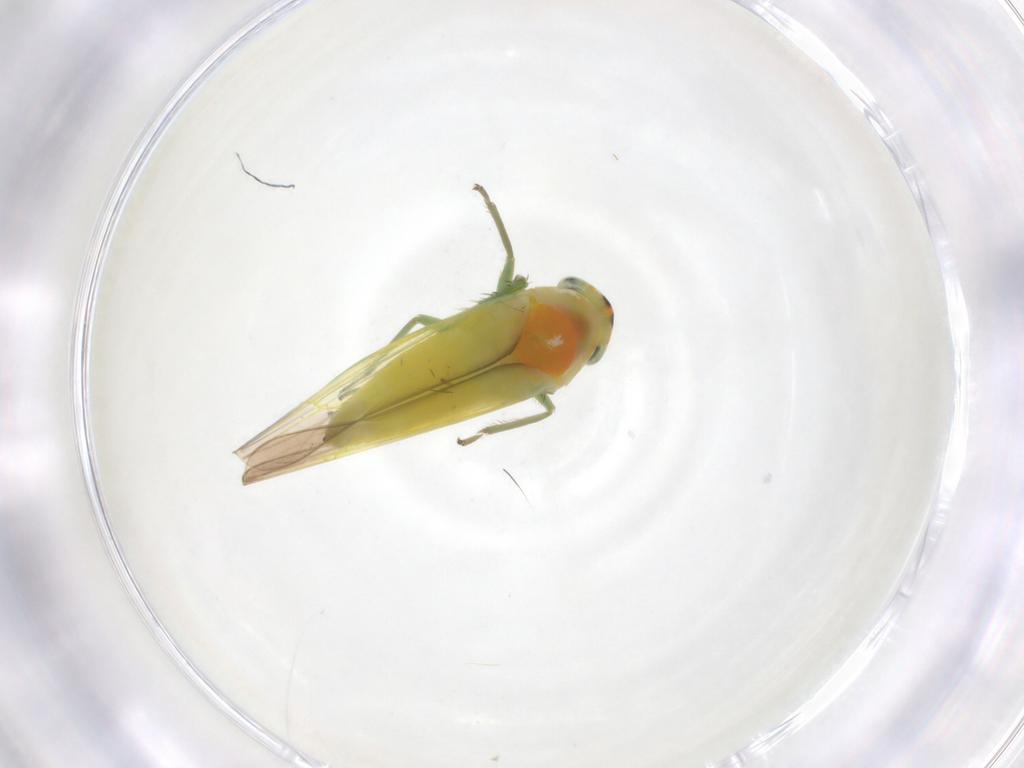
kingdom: Animalia
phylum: Arthropoda
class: Insecta
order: Hemiptera
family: Cicadellidae
